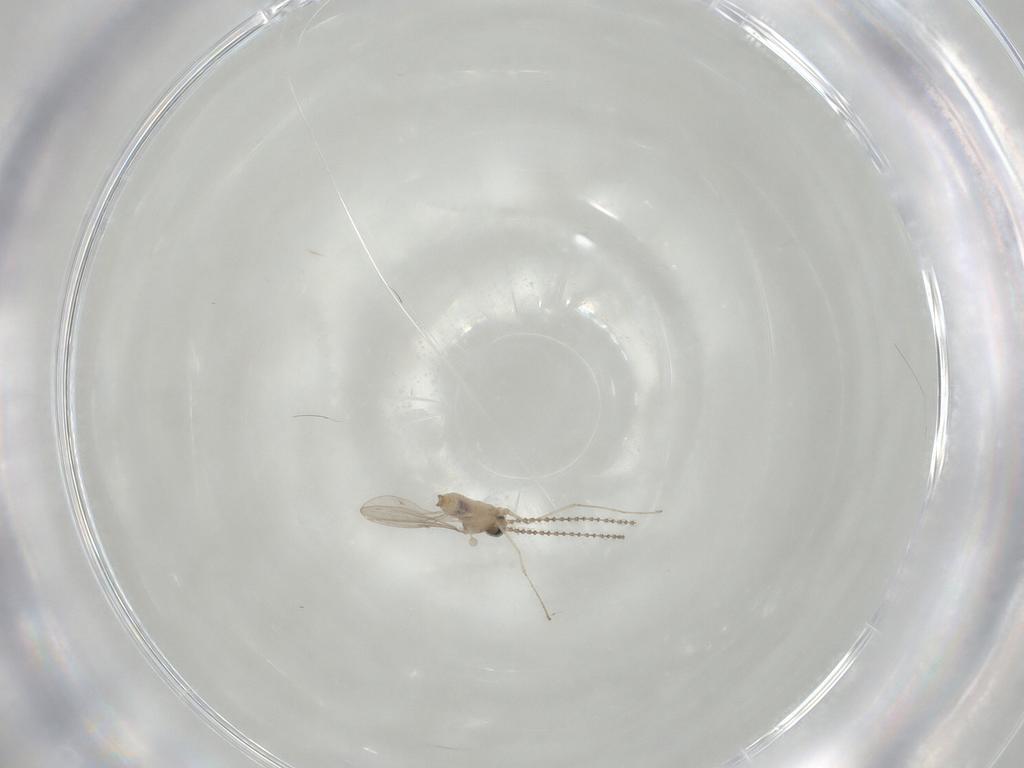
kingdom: Animalia
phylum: Arthropoda
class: Insecta
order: Diptera
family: Cecidomyiidae
